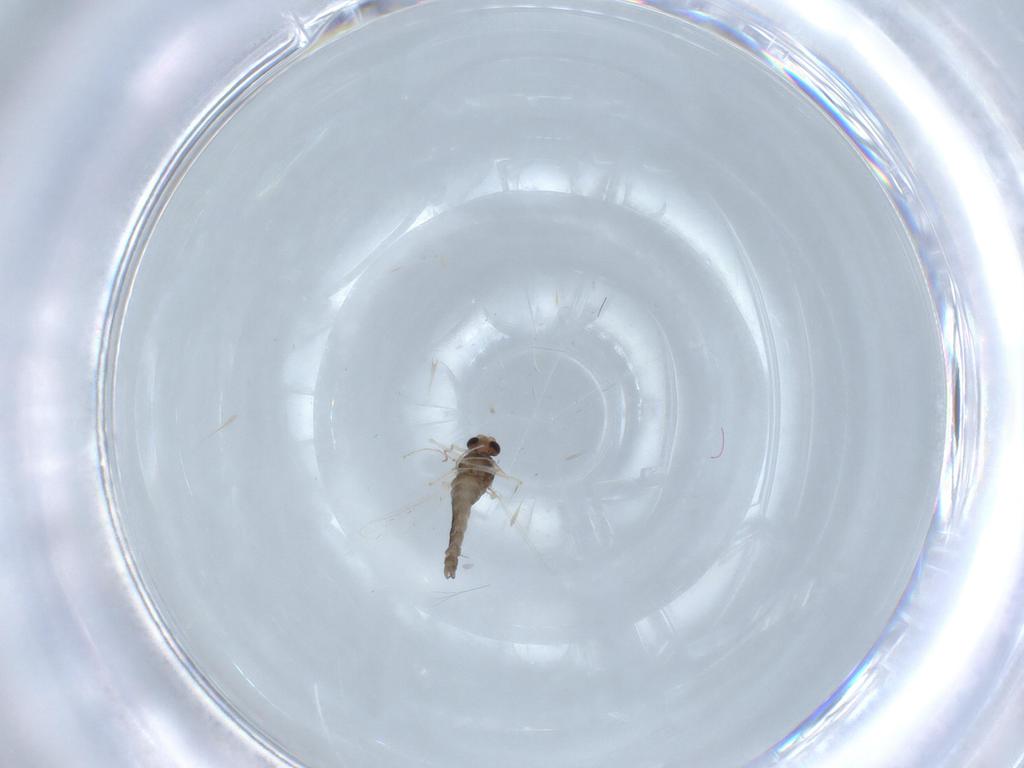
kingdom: Animalia
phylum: Arthropoda
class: Insecta
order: Diptera
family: Chironomidae
